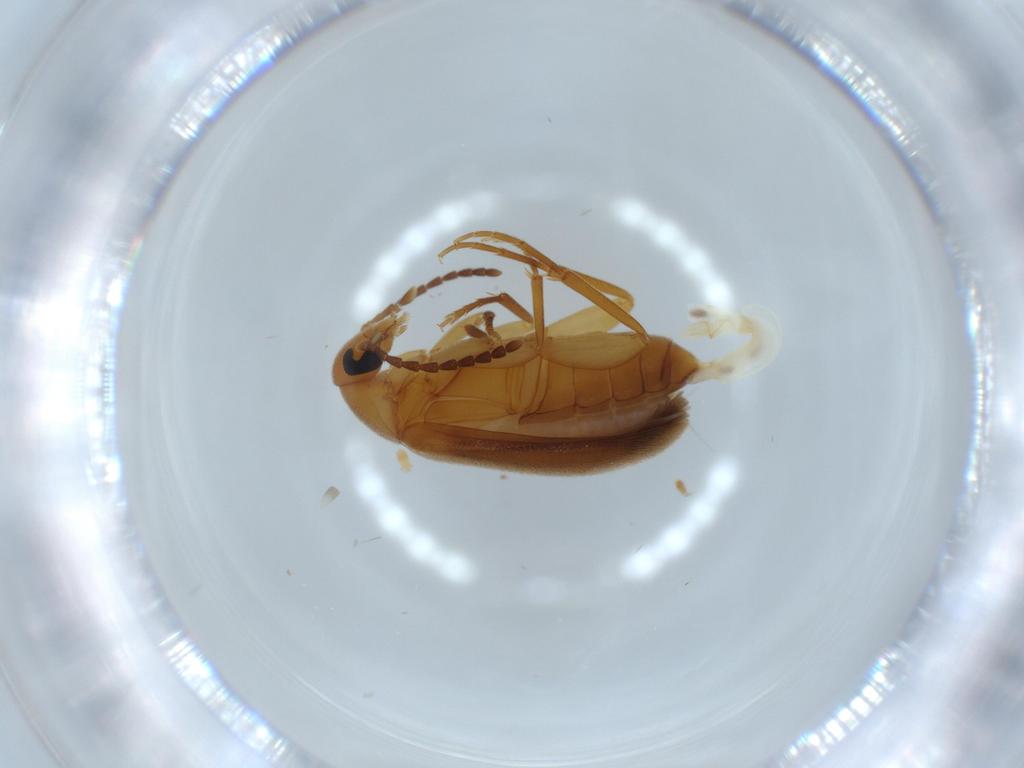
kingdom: Animalia
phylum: Arthropoda
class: Insecta
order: Coleoptera
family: Scraptiidae
